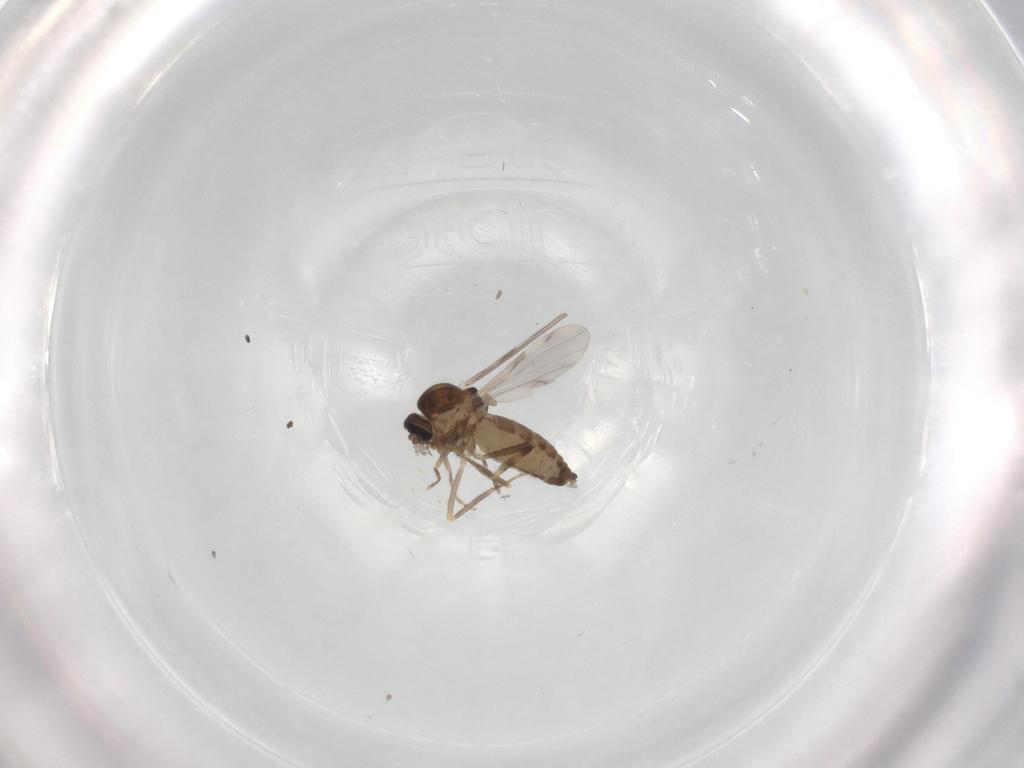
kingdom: Animalia
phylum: Arthropoda
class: Insecta
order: Diptera
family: Ceratopogonidae
